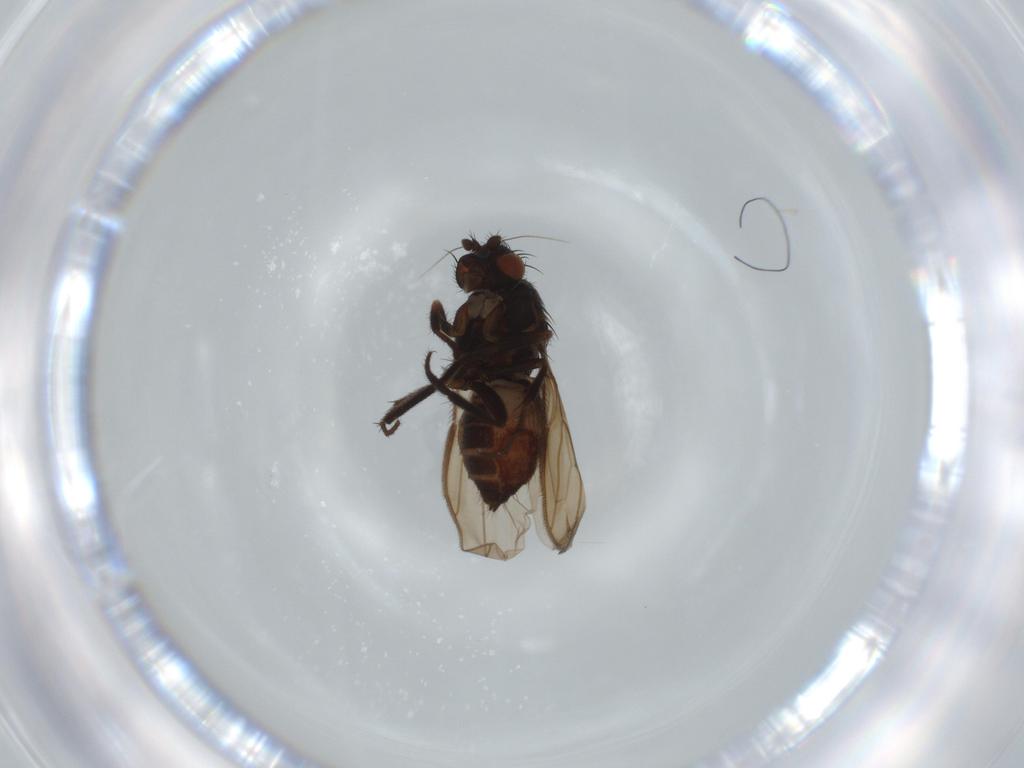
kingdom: Animalia
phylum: Arthropoda
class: Insecta
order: Diptera
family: Sphaeroceridae
